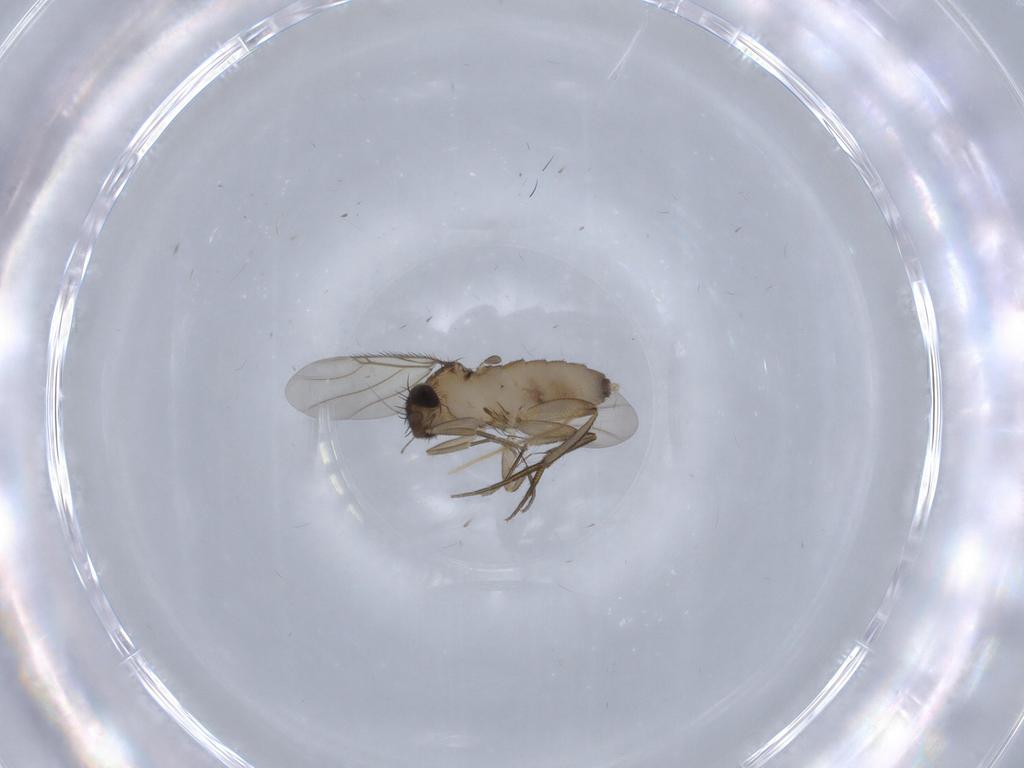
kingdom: Animalia
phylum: Arthropoda
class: Insecta
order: Diptera
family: Phoridae
